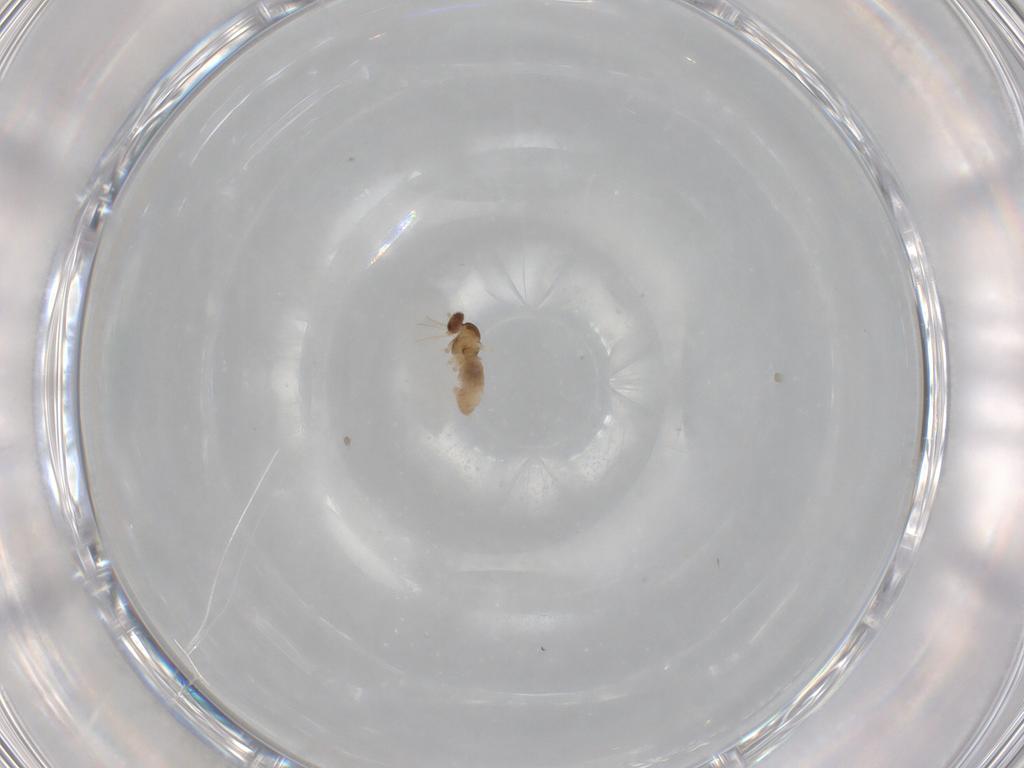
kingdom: Animalia
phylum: Arthropoda
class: Insecta
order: Diptera
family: Cecidomyiidae
